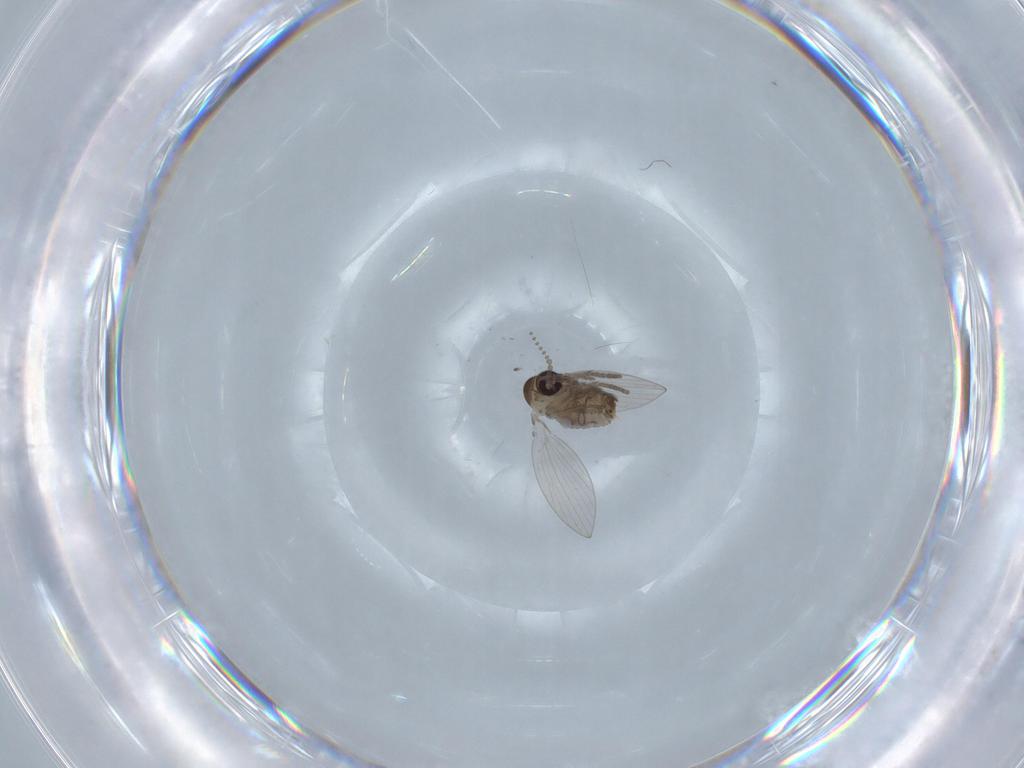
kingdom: Animalia
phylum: Arthropoda
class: Insecta
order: Diptera
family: Psychodidae
